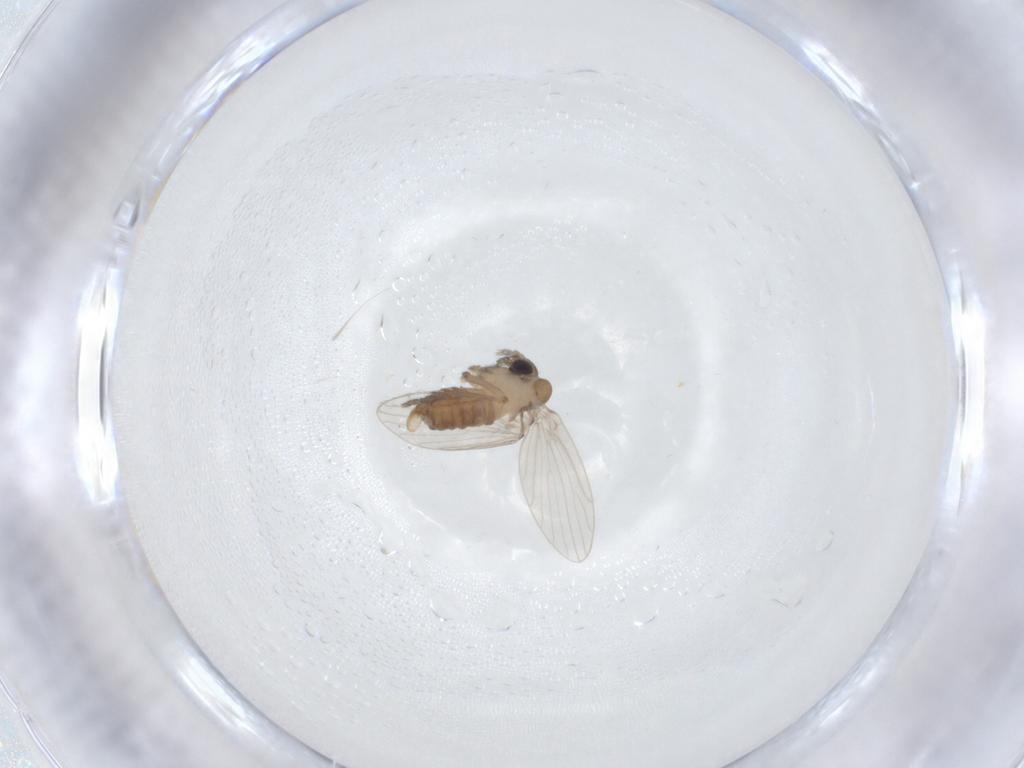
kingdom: Animalia
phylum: Arthropoda
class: Insecta
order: Diptera
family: Psychodidae
